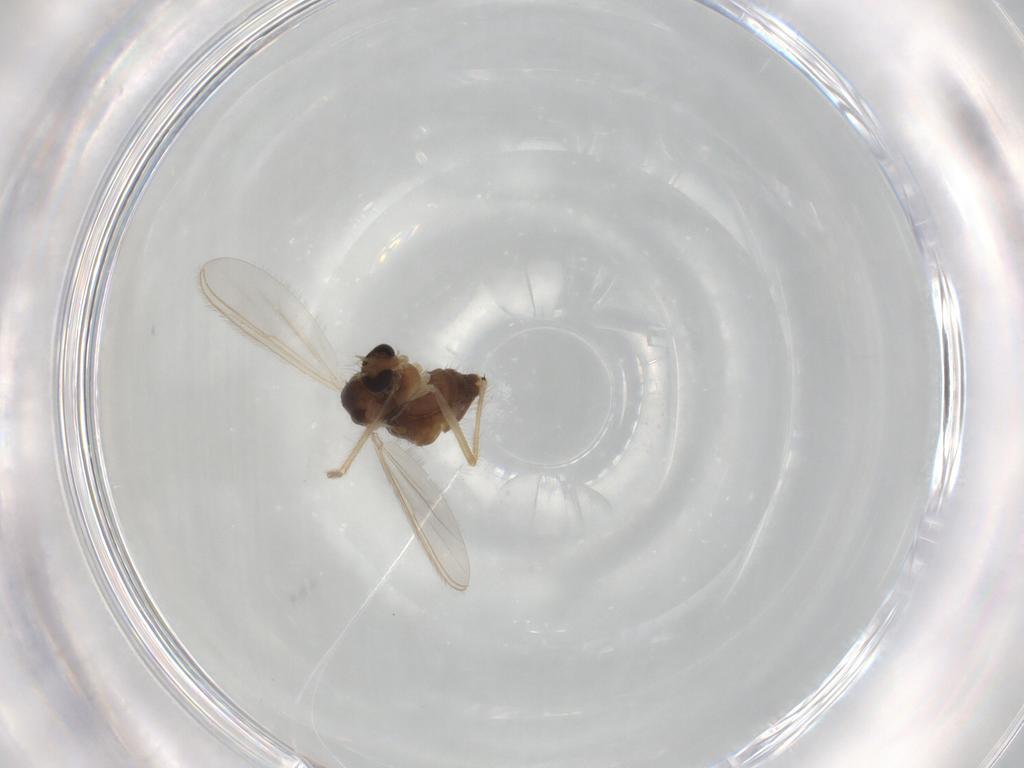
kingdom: Animalia
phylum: Arthropoda
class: Insecta
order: Diptera
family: Chironomidae
